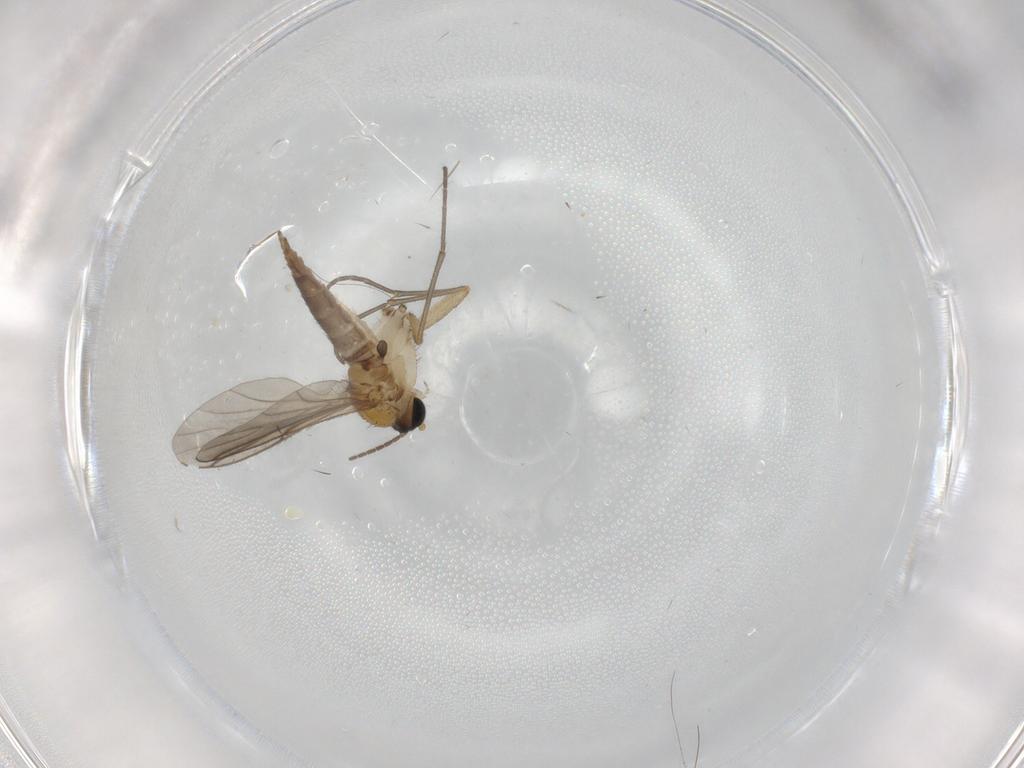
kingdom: Animalia
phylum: Arthropoda
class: Insecta
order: Diptera
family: Sciaridae
